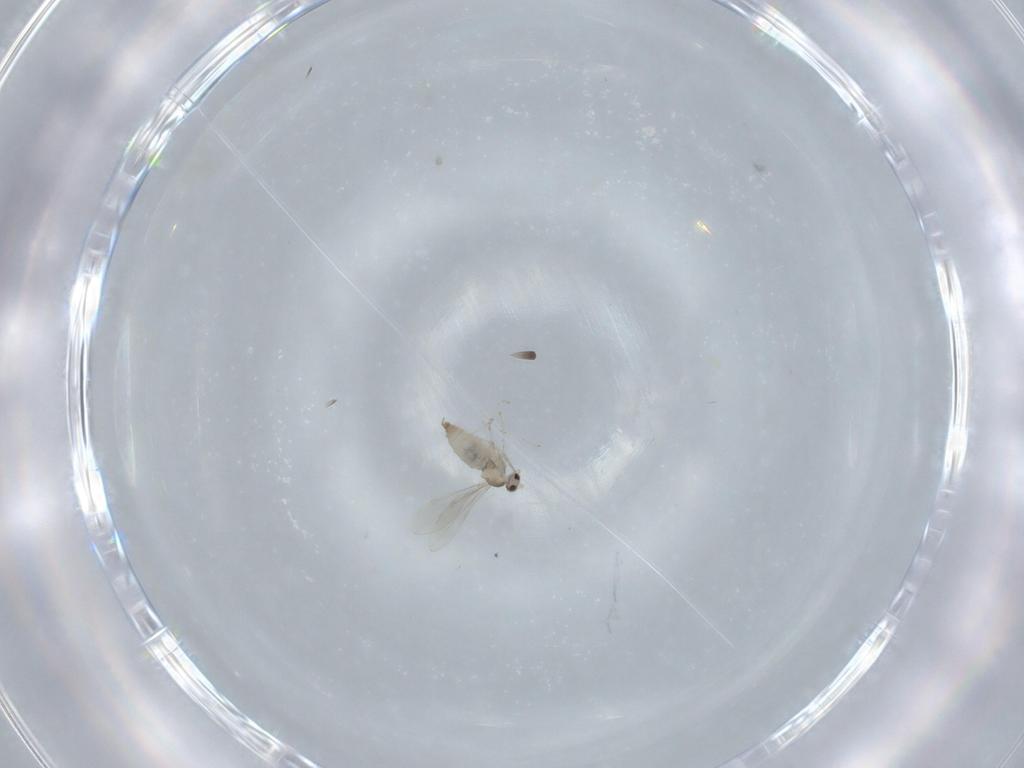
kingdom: Animalia
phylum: Arthropoda
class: Insecta
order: Diptera
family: Cecidomyiidae
